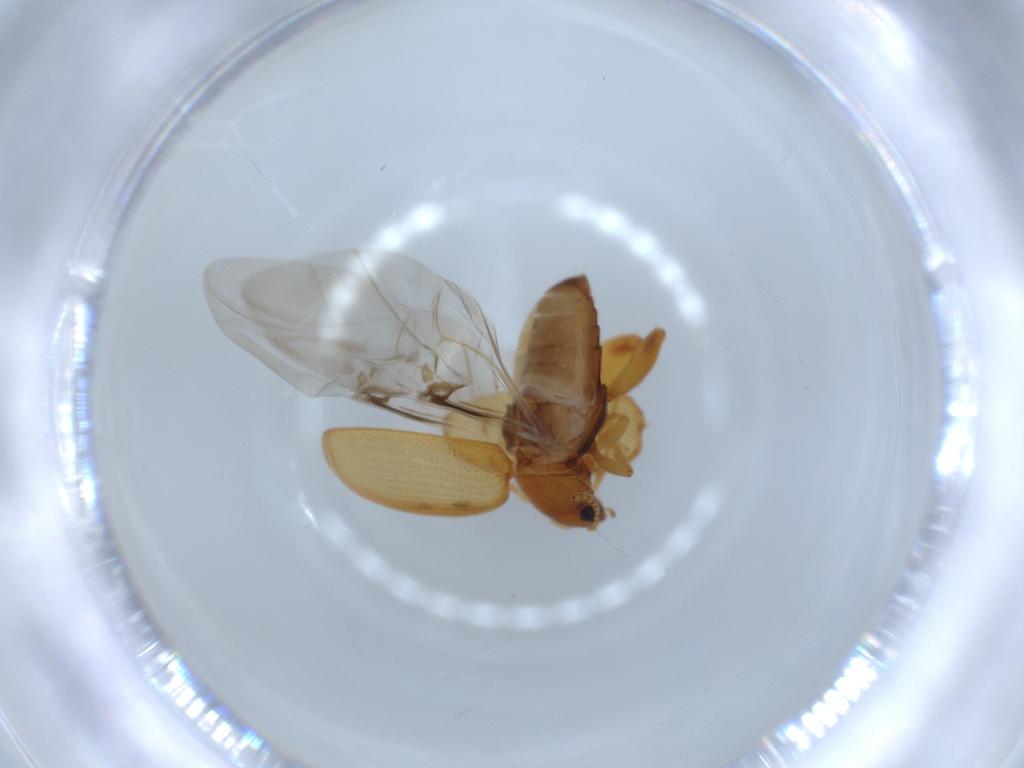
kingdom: Animalia
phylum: Arthropoda
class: Insecta
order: Coleoptera
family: Chrysomelidae
